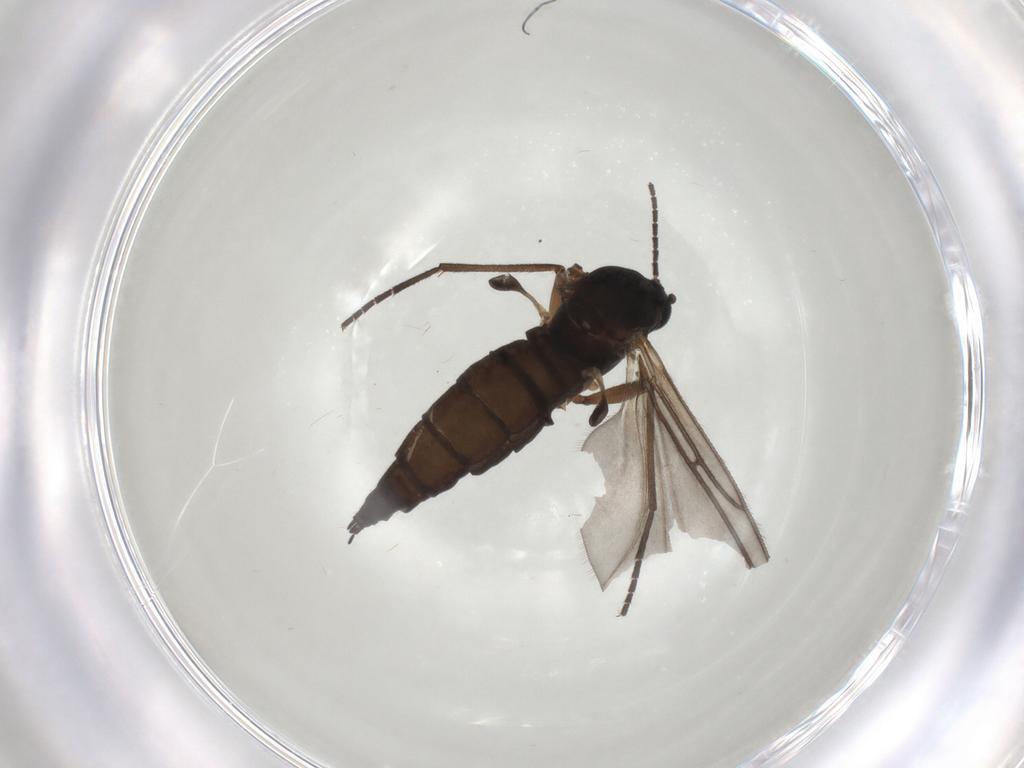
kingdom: Animalia
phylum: Arthropoda
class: Insecta
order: Diptera
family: Sciaridae
